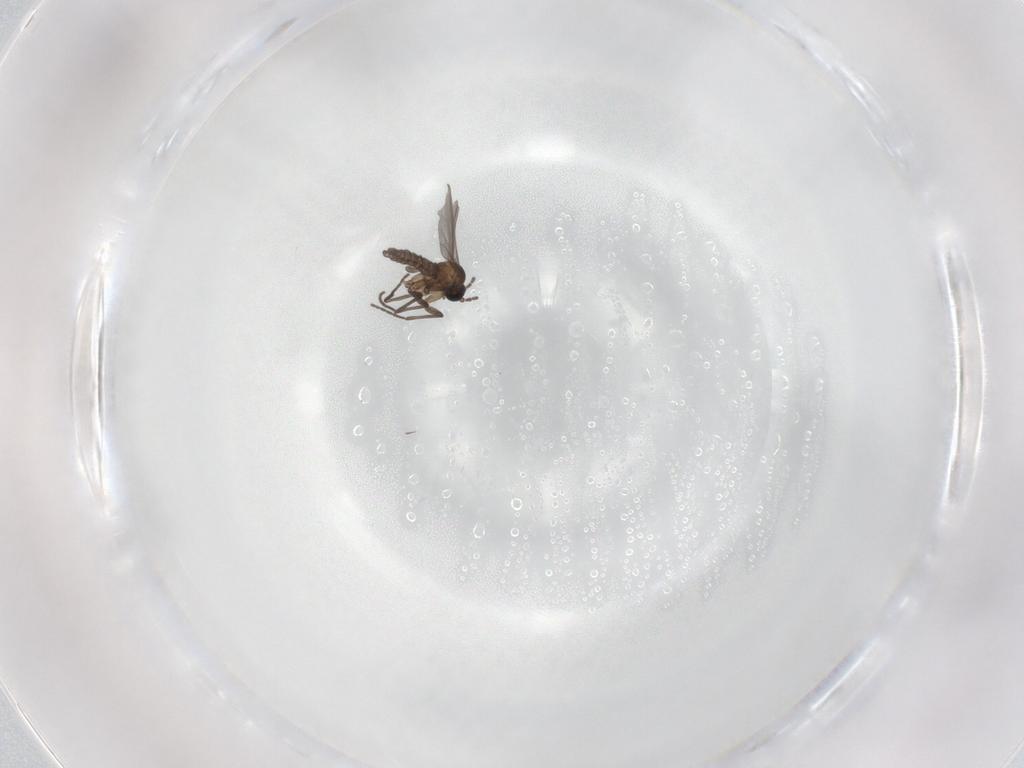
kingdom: Animalia
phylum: Arthropoda
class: Insecta
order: Diptera
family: Sciaridae
